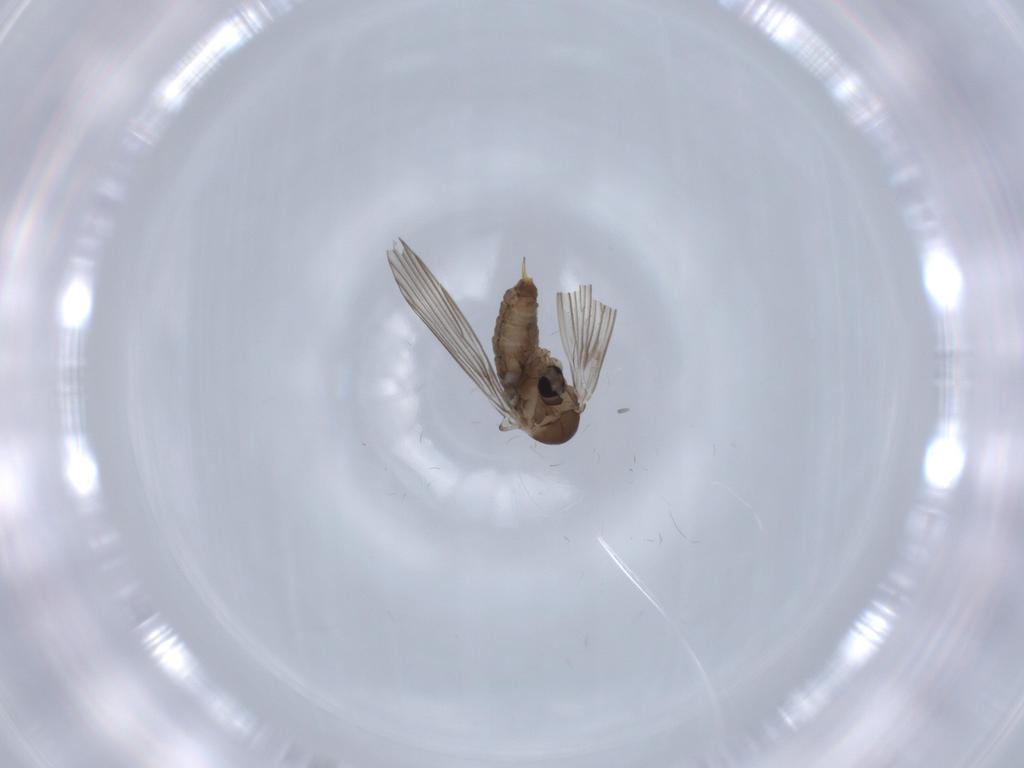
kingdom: Animalia
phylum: Arthropoda
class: Insecta
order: Diptera
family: Psychodidae
